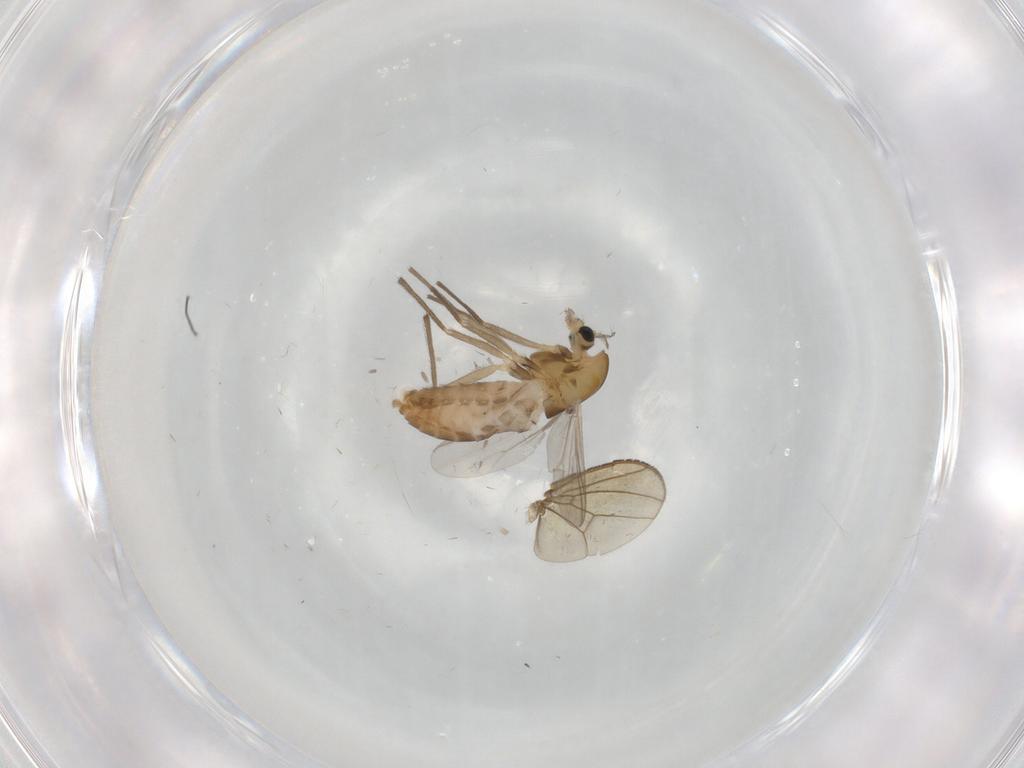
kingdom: Animalia
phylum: Arthropoda
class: Insecta
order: Diptera
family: Chironomidae
